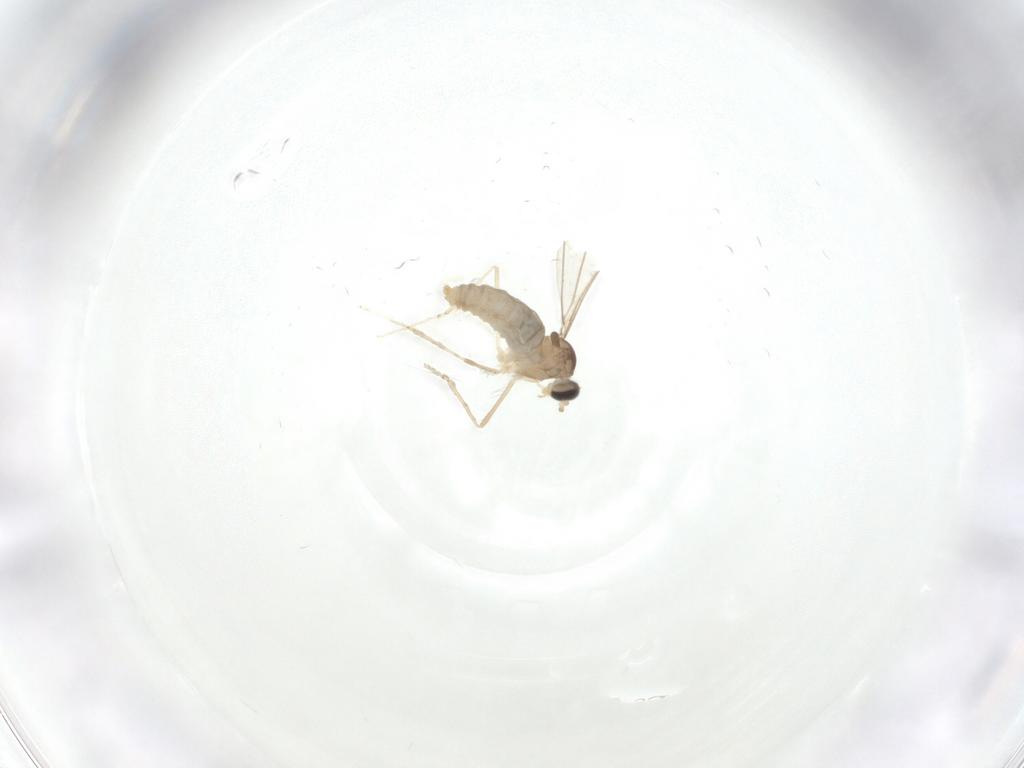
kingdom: Animalia
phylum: Arthropoda
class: Insecta
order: Diptera
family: Cecidomyiidae
